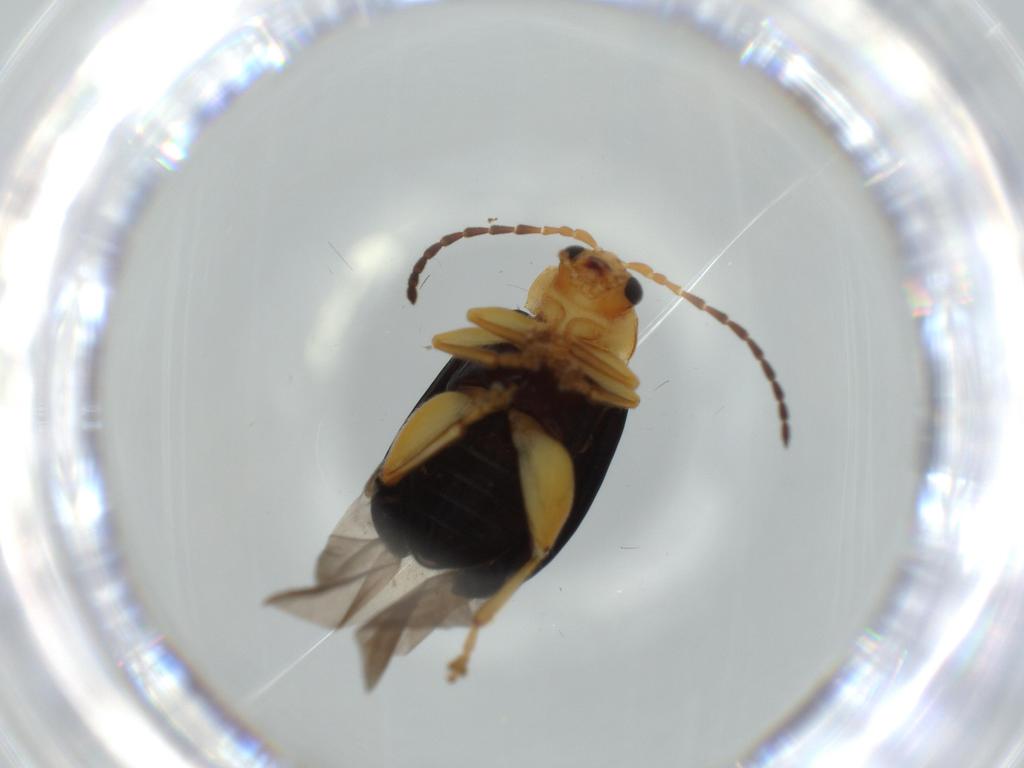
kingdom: Animalia
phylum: Arthropoda
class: Insecta
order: Coleoptera
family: Chrysomelidae
